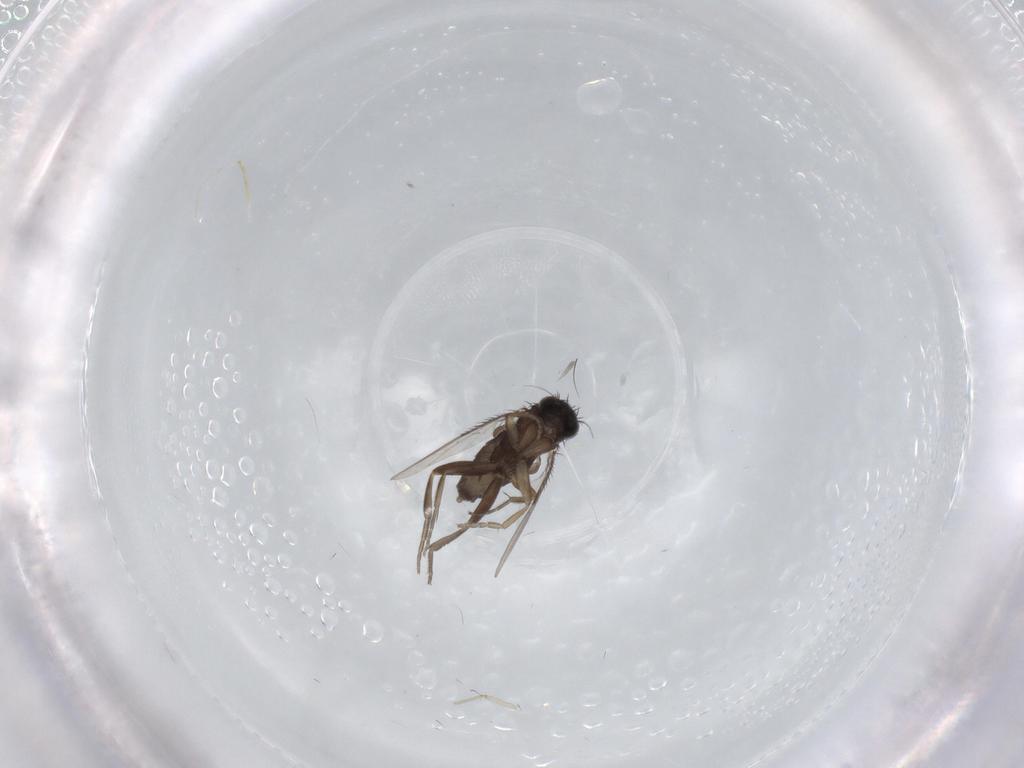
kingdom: Animalia
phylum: Arthropoda
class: Insecta
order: Diptera
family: Phoridae
